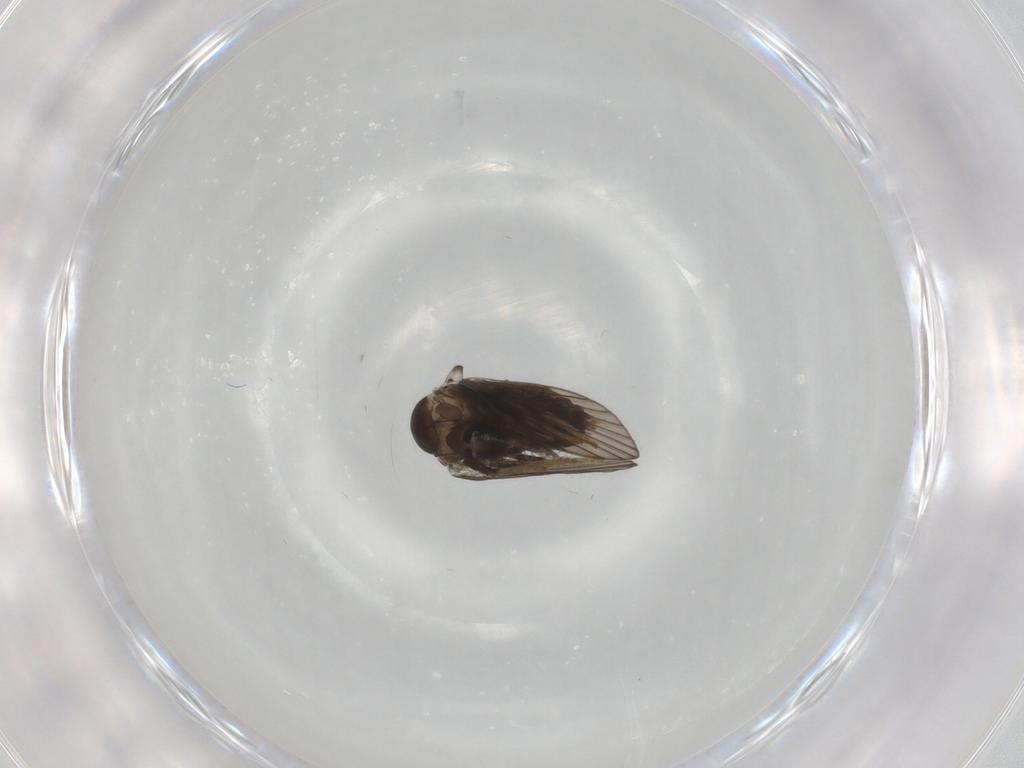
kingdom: Animalia
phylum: Arthropoda
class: Insecta
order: Diptera
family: Psychodidae
